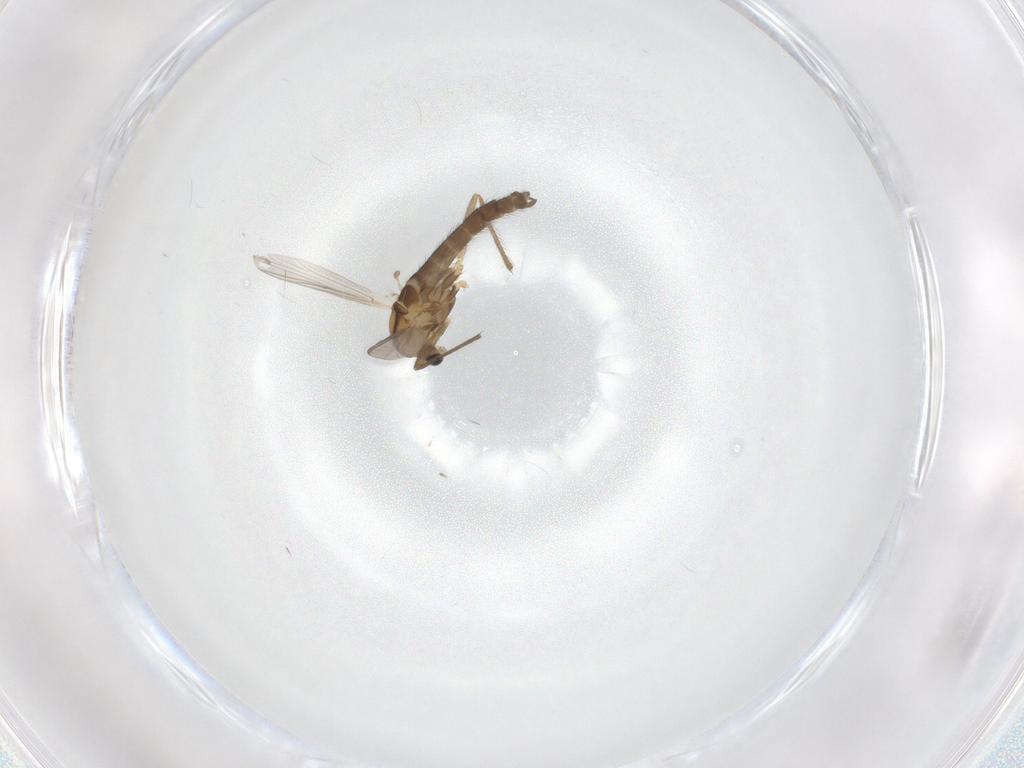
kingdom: Animalia
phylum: Arthropoda
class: Insecta
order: Diptera
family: Chironomidae
